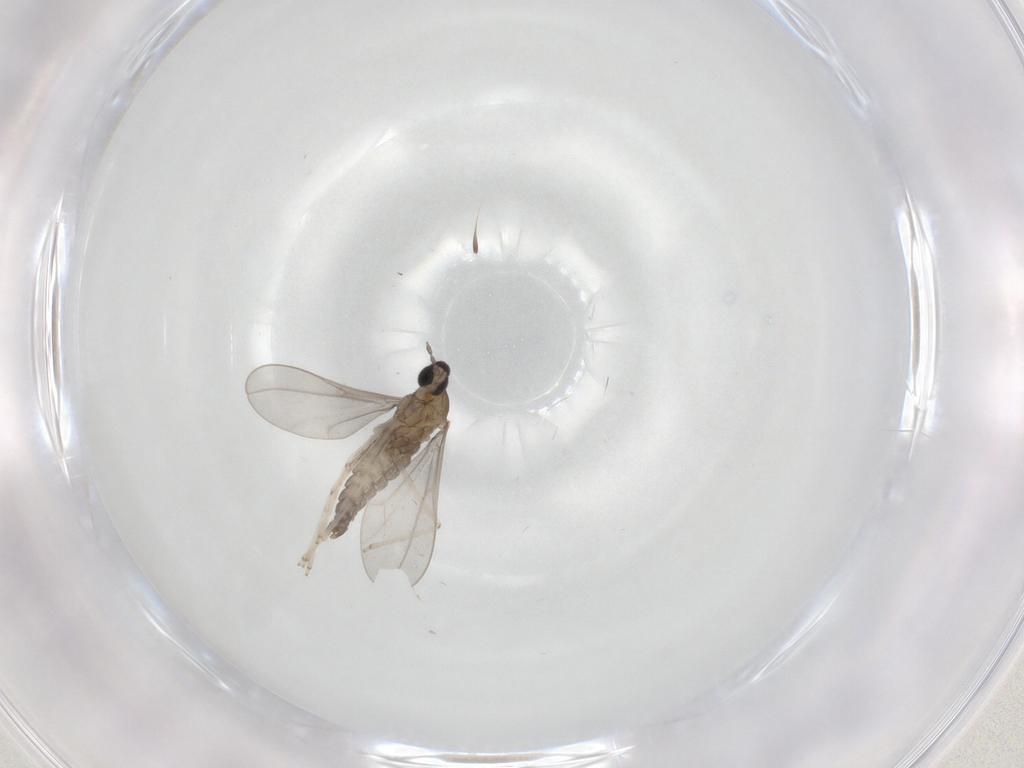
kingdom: Animalia
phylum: Arthropoda
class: Insecta
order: Diptera
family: Cecidomyiidae
